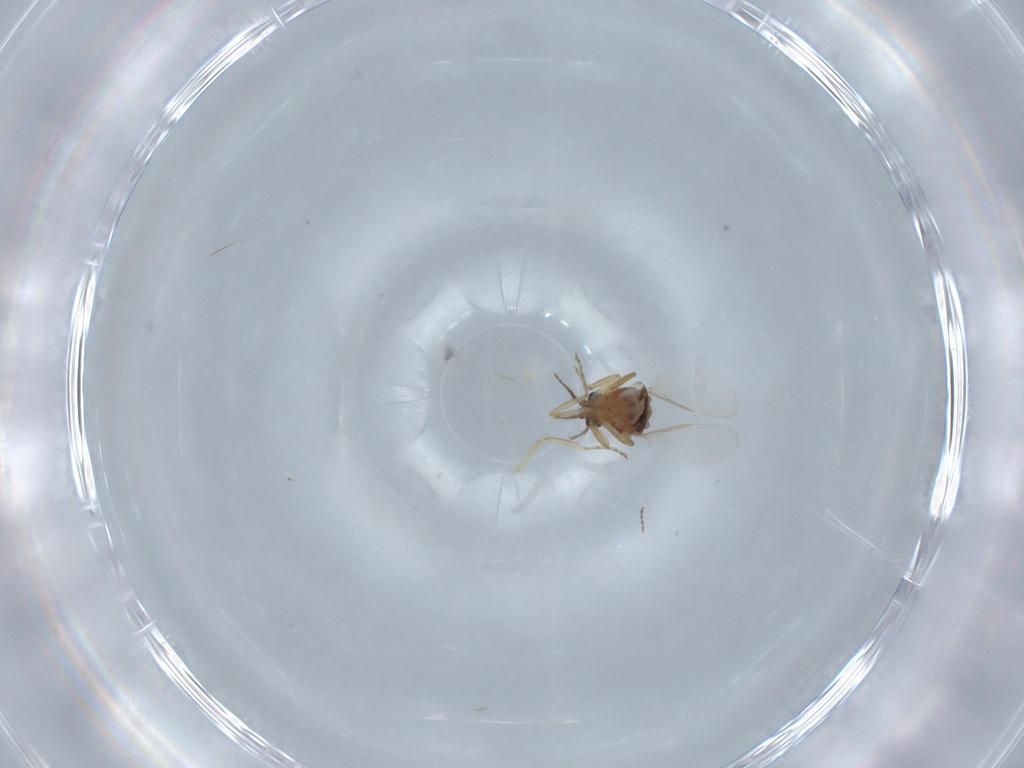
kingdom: Animalia
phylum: Arthropoda
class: Insecta
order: Diptera
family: Ceratopogonidae
